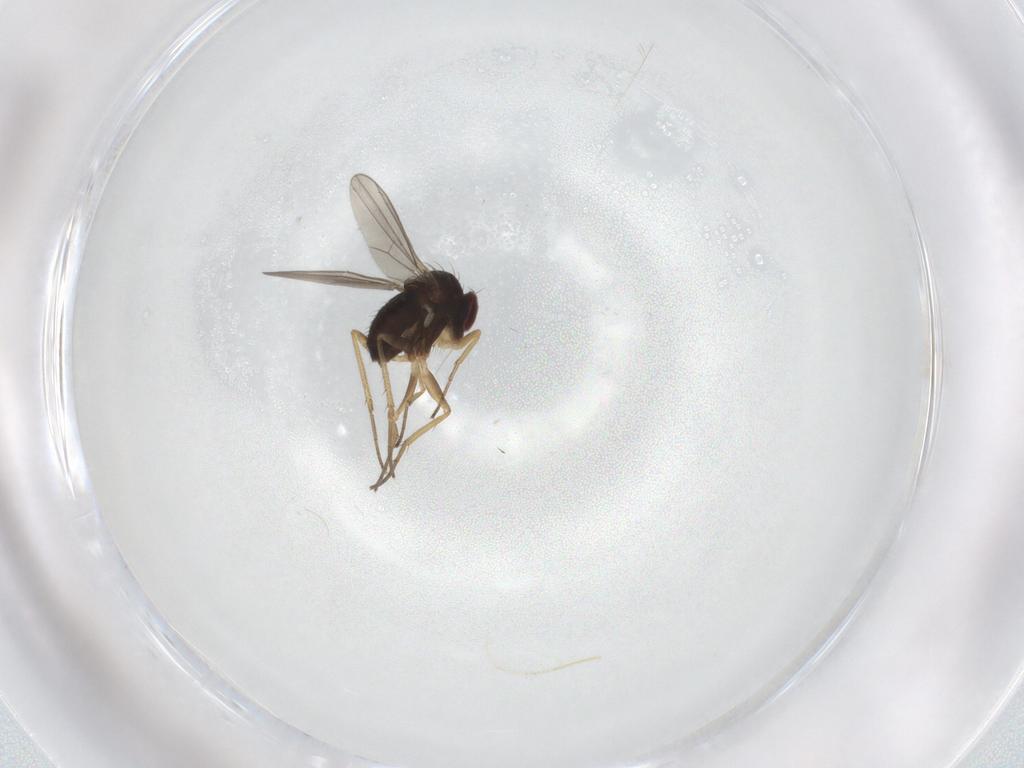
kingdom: Animalia
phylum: Arthropoda
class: Insecta
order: Diptera
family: Dolichopodidae
